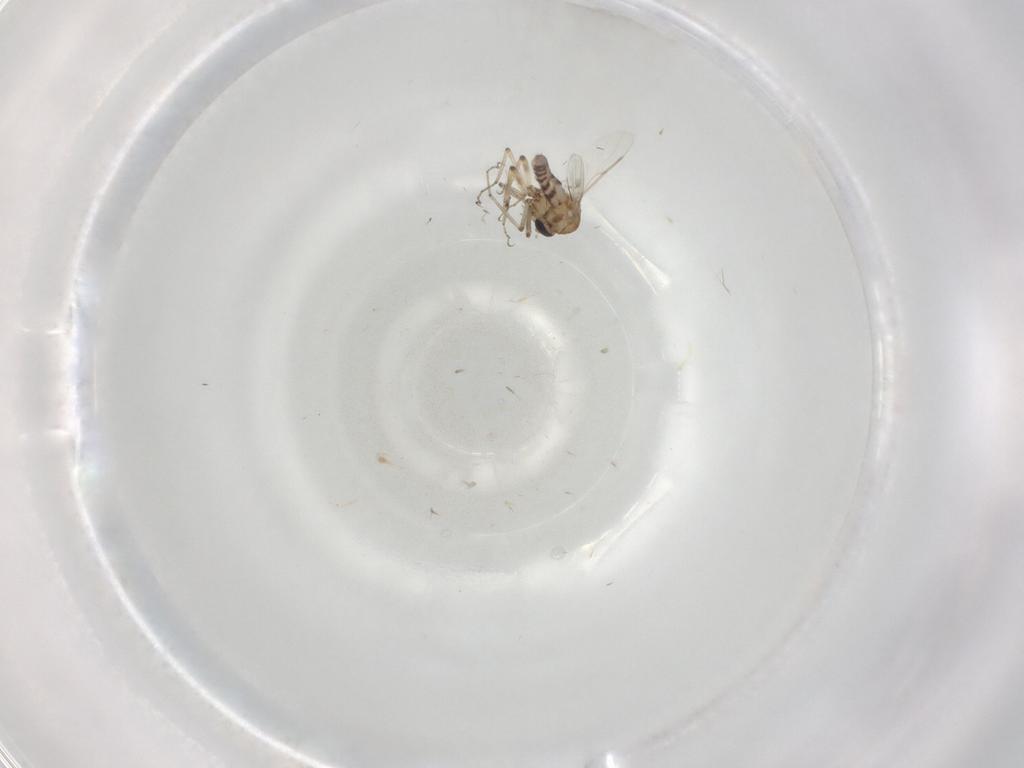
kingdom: Animalia
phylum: Arthropoda
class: Insecta
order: Diptera
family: Ceratopogonidae
